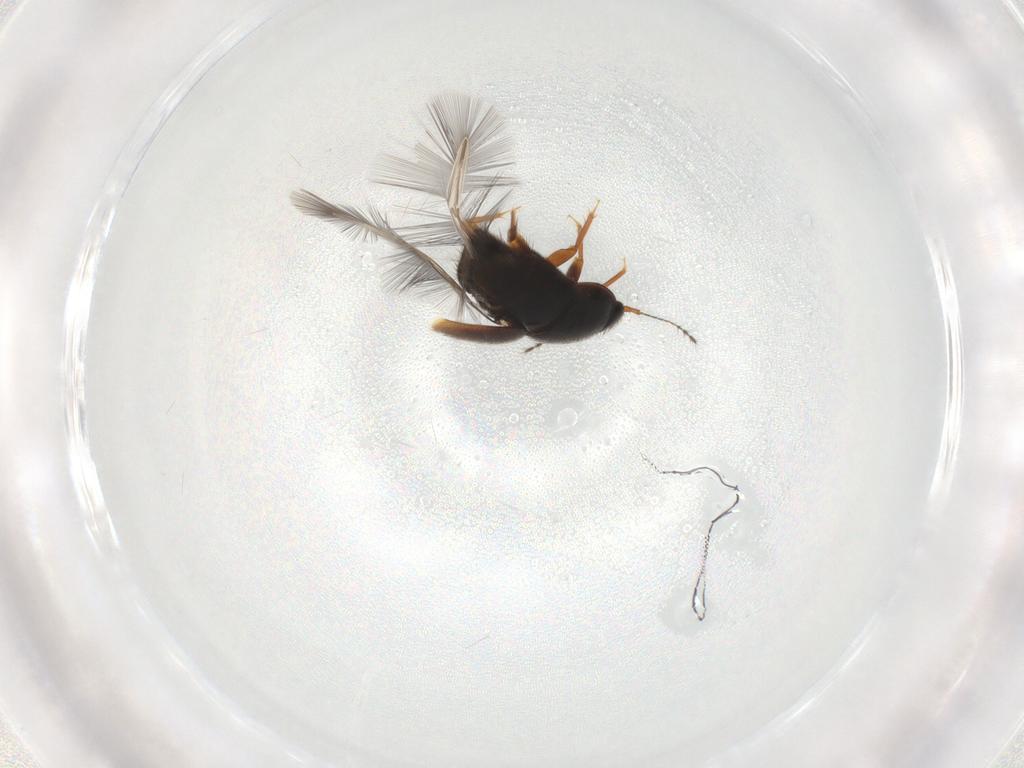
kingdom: Animalia
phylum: Arthropoda
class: Insecta
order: Coleoptera
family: Ptiliidae
